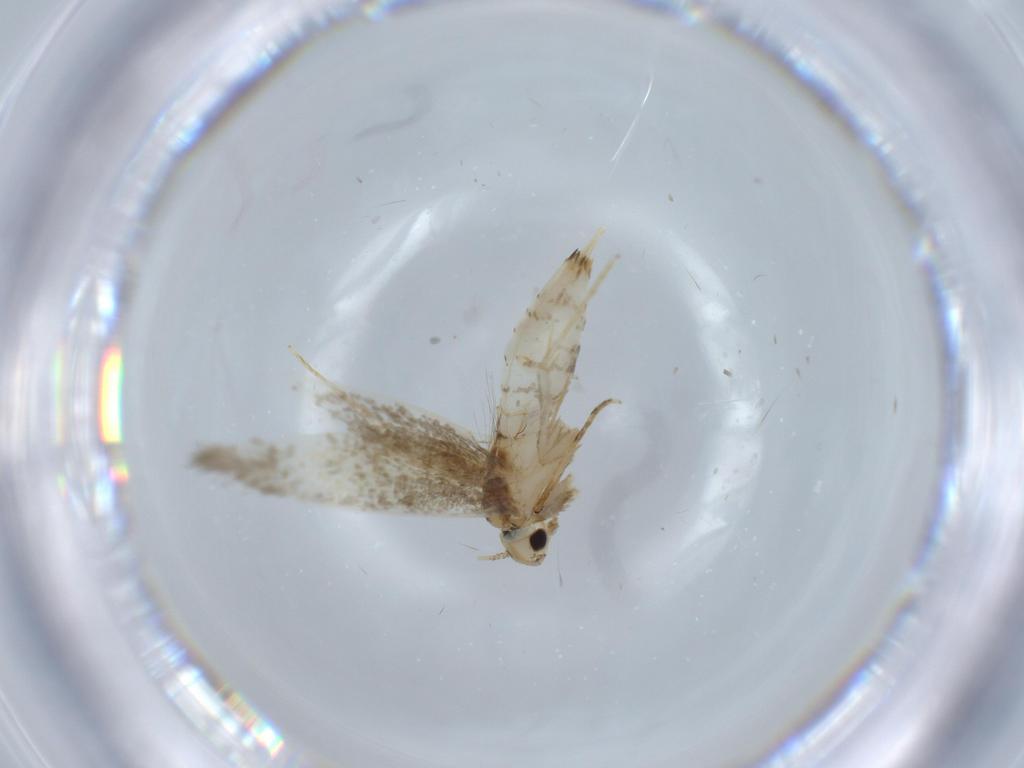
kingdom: Animalia
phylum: Arthropoda
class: Insecta
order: Lepidoptera
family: Tineidae
